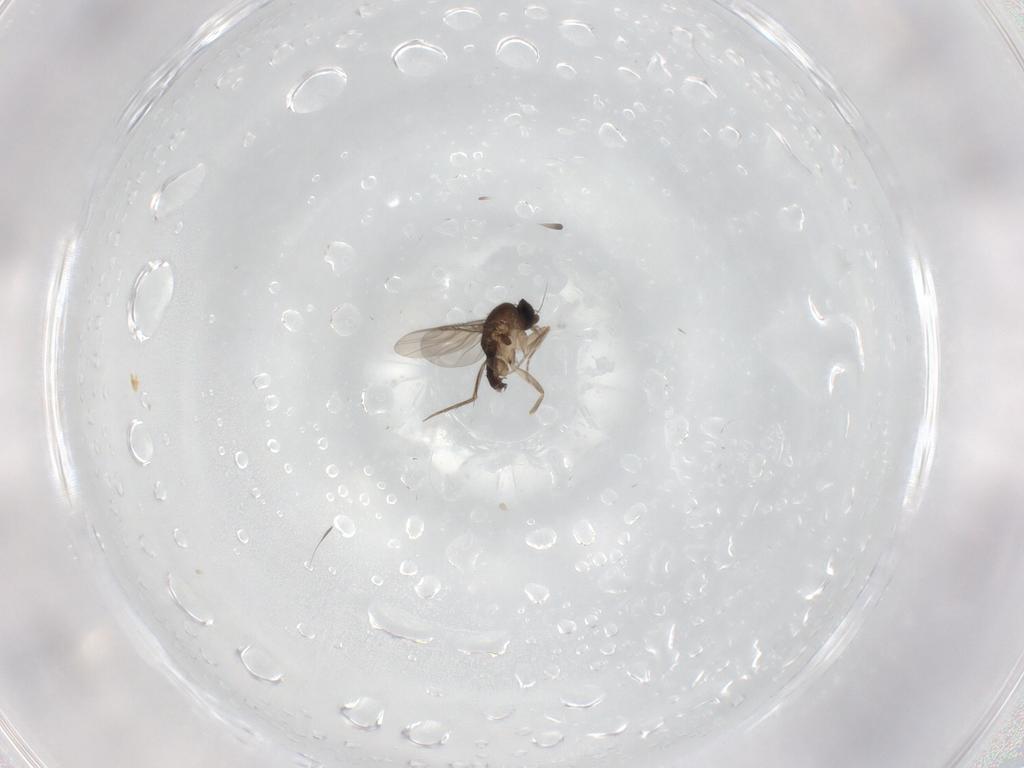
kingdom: Animalia
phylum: Arthropoda
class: Insecta
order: Diptera
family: Phoridae
